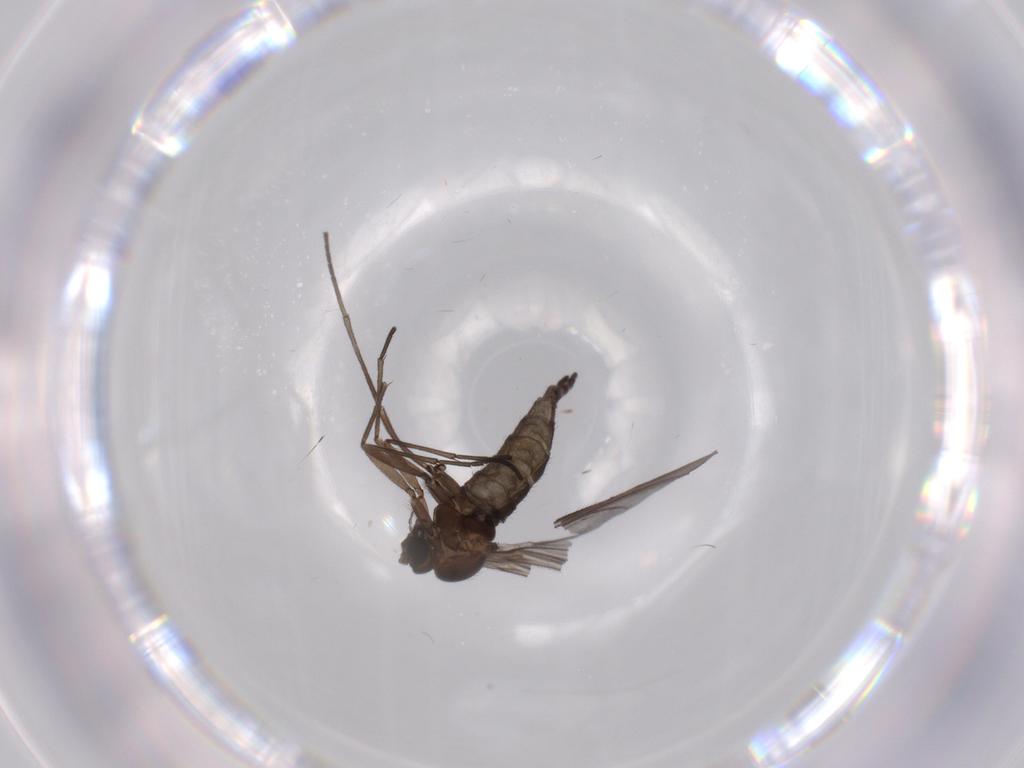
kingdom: Animalia
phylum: Arthropoda
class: Insecta
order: Diptera
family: Sciaridae
